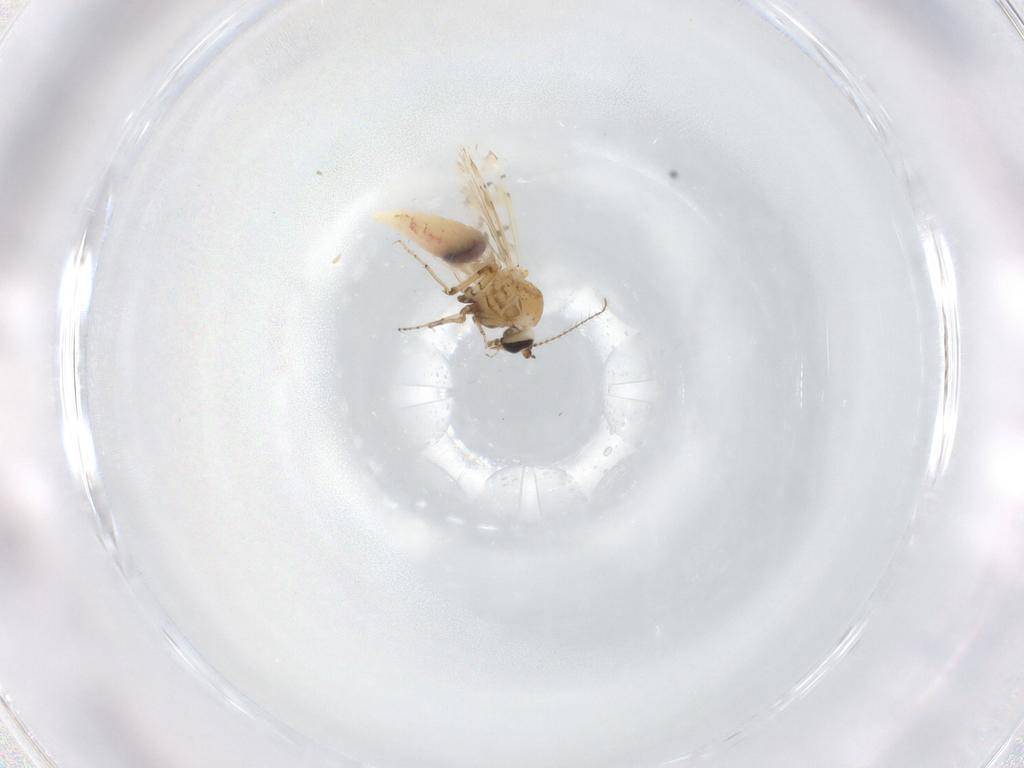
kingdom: Animalia
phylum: Arthropoda
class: Insecta
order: Diptera
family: Ceratopogonidae
